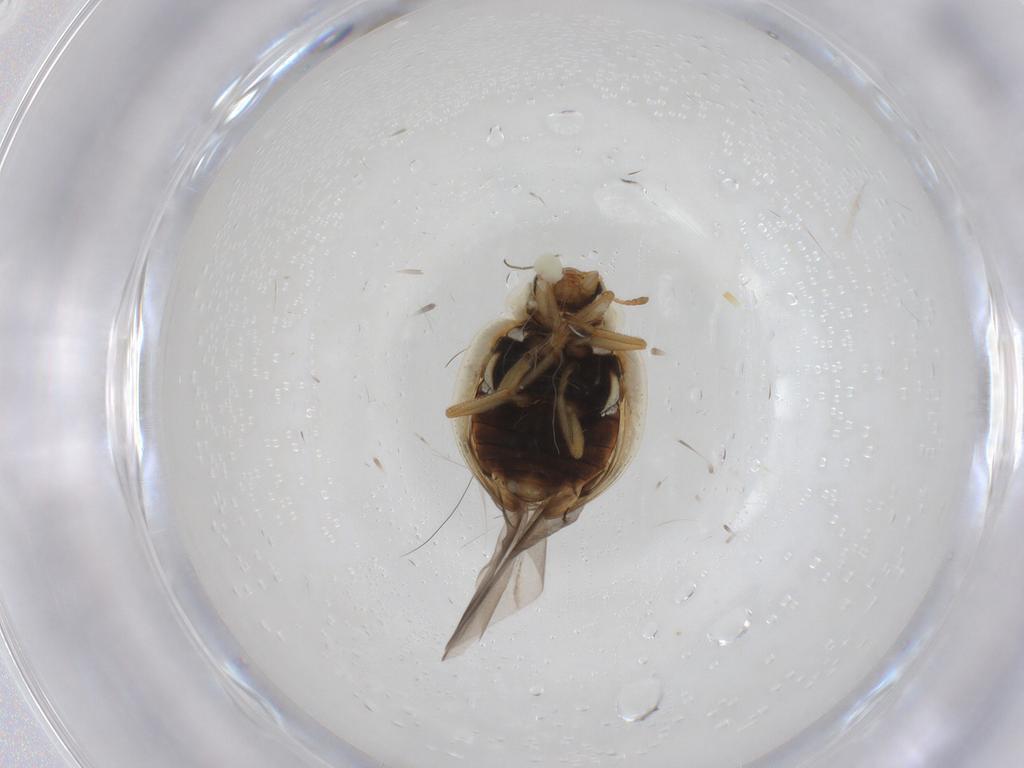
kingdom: Animalia
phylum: Arthropoda
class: Insecta
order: Coleoptera
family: Coccinellidae
